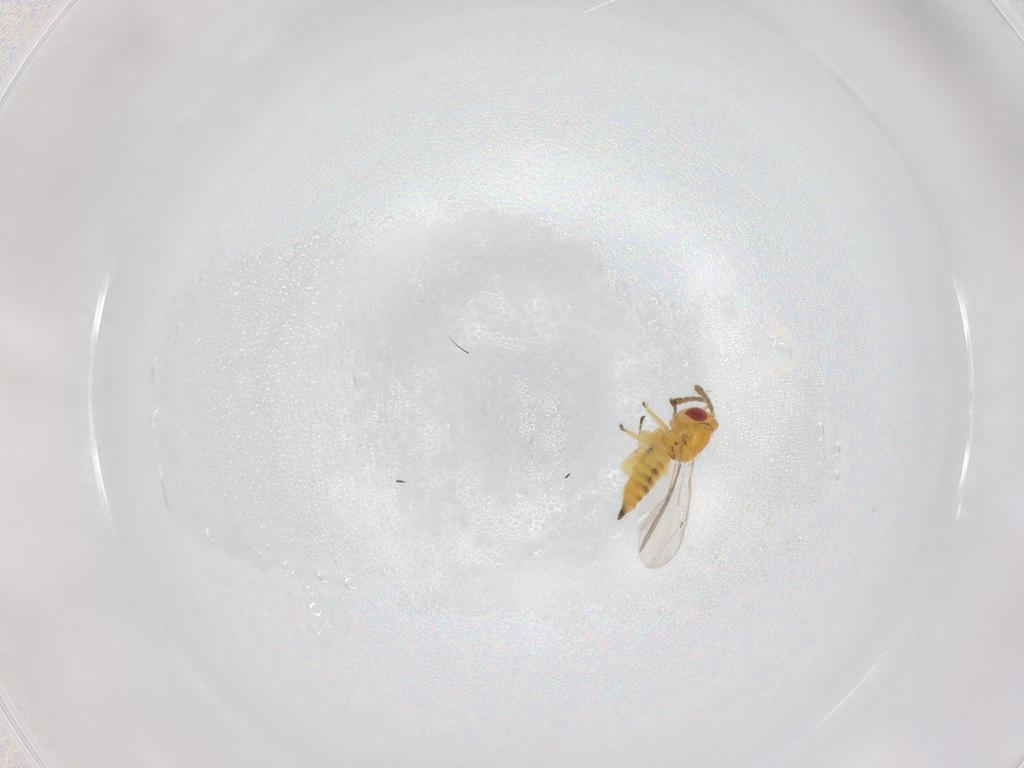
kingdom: Animalia
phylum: Arthropoda
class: Insecta
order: Hymenoptera
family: Eulophidae
